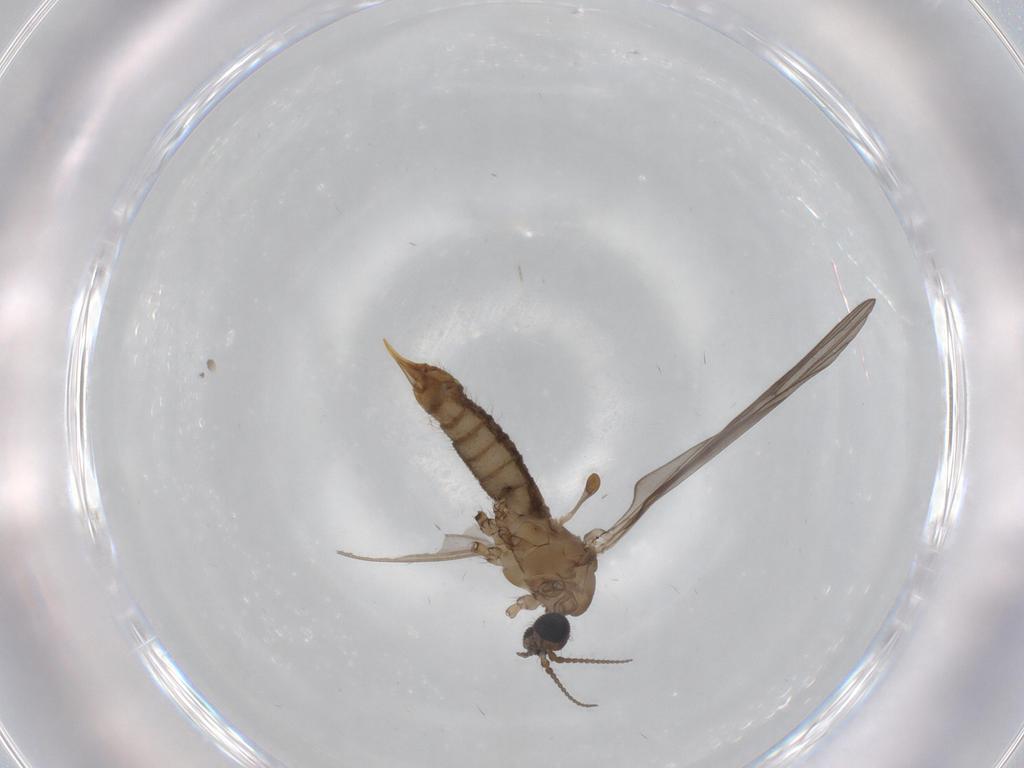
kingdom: Animalia
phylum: Arthropoda
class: Insecta
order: Diptera
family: Limoniidae
